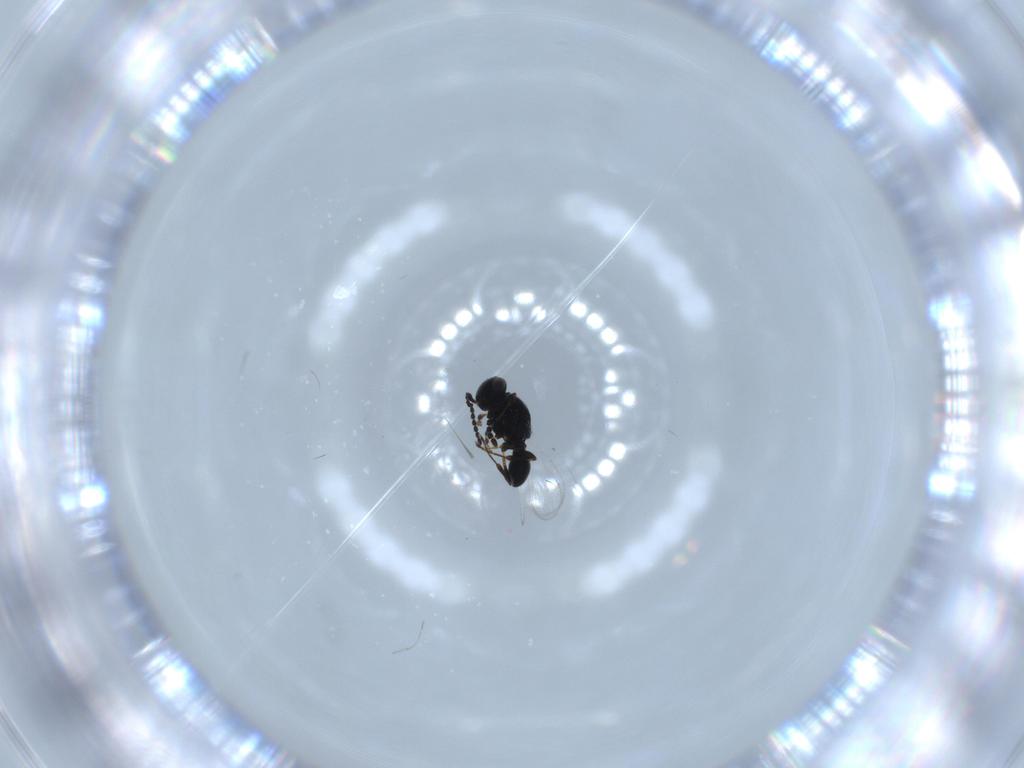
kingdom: Animalia
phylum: Arthropoda
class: Insecta
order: Hymenoptera
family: Platygastridae
